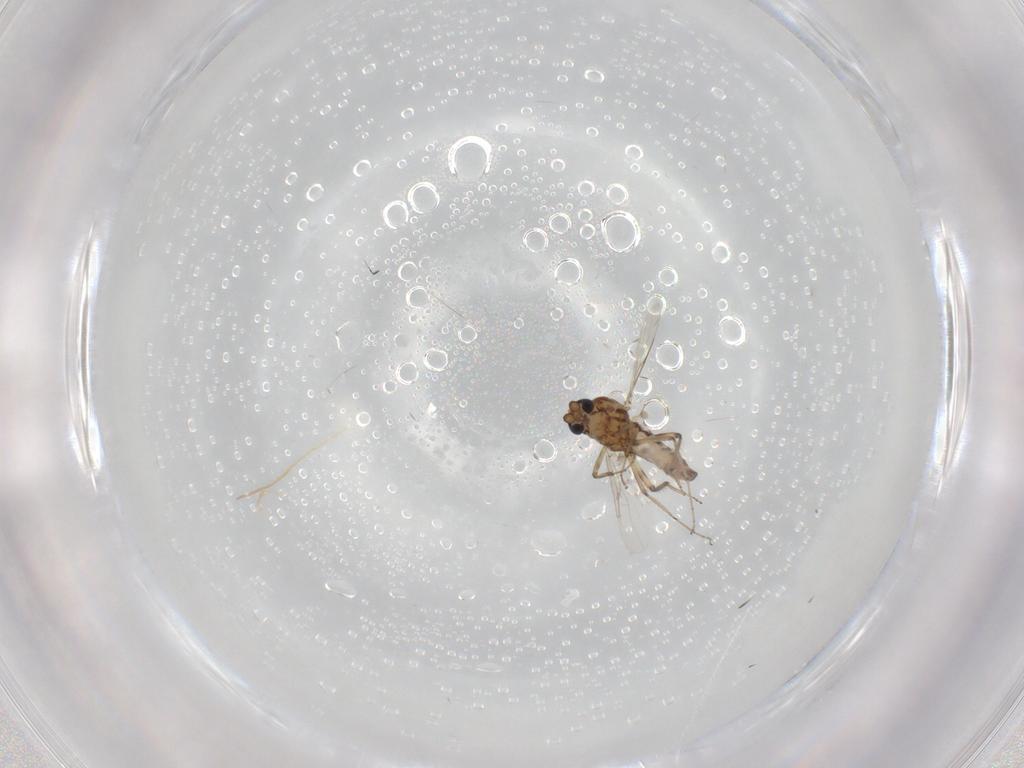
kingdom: Animalia
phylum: Arthropoda
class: Insecta
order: Diptera
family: Ceratopogonidae
